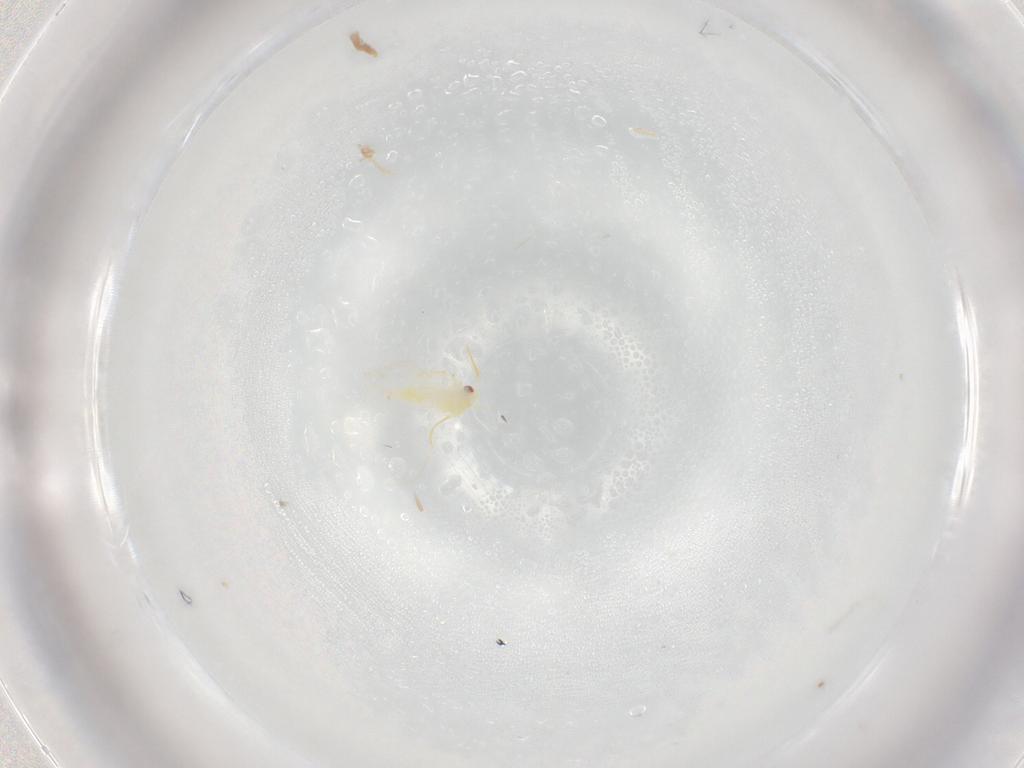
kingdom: Animalia
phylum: Arthropoda
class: Insecta
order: Hemiptera
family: Aleyrodidae
